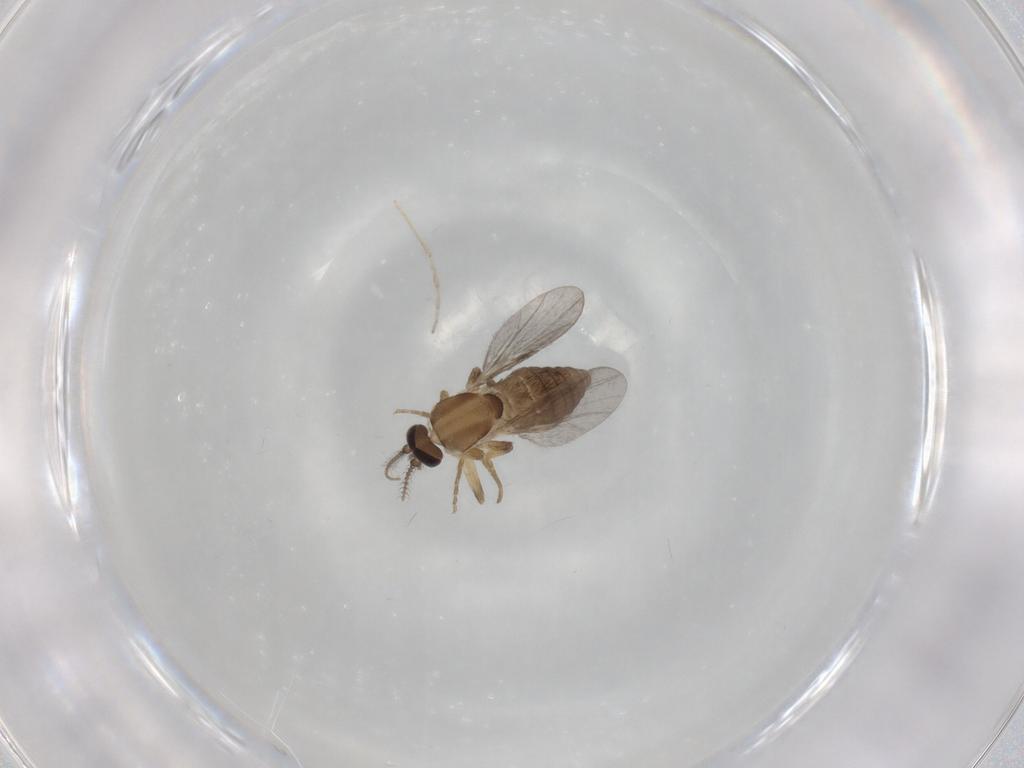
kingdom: Animalia
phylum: Arthropoda
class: Insecta
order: Diptera
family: Ceratopogonidae
